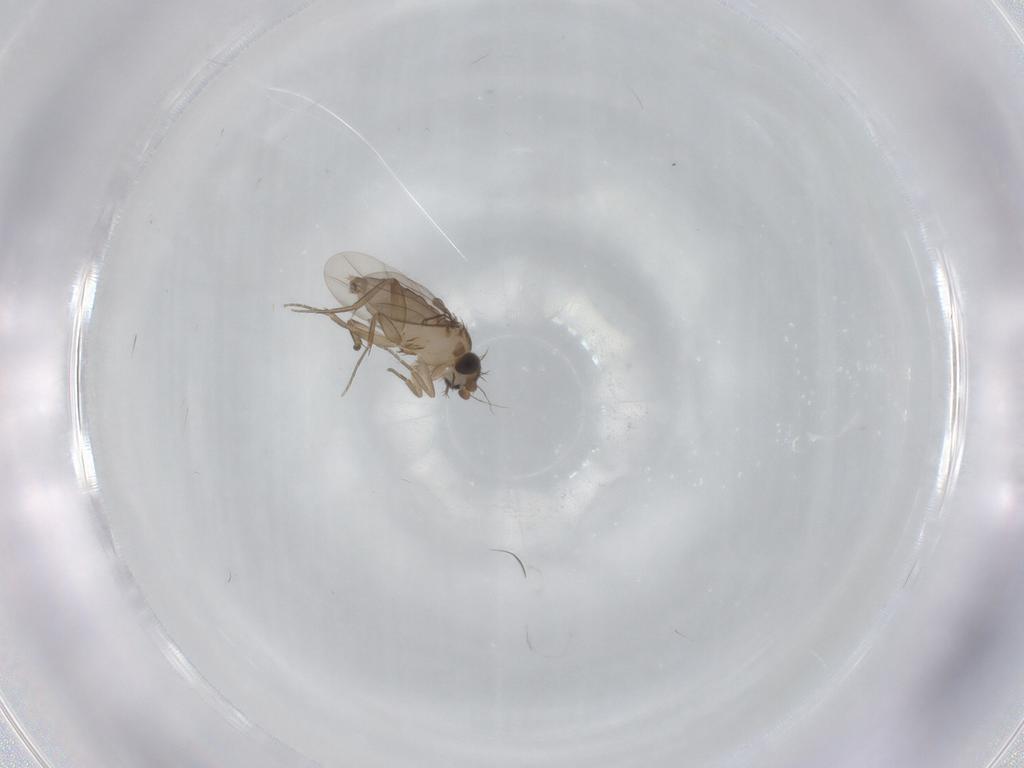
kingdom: Animalia
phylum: Arthropoda
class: Insecta
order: Diptera
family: Phoridae
